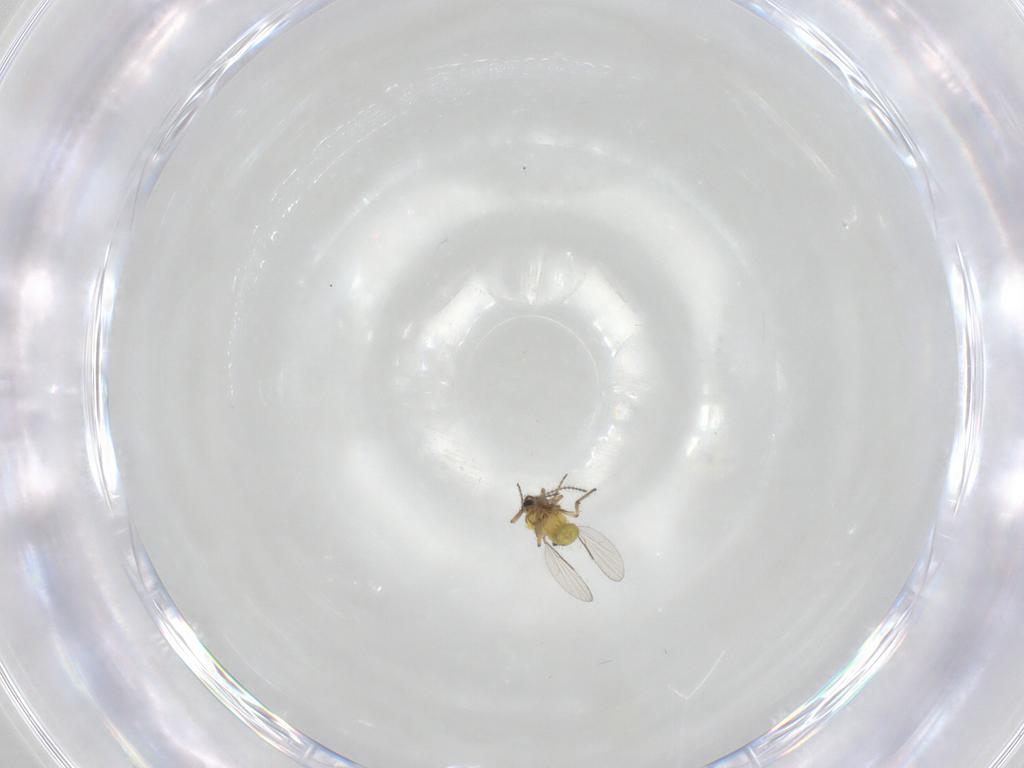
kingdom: Animalia
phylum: Arthropoda
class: Insecta
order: Diptera
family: Ceratopogonidae
